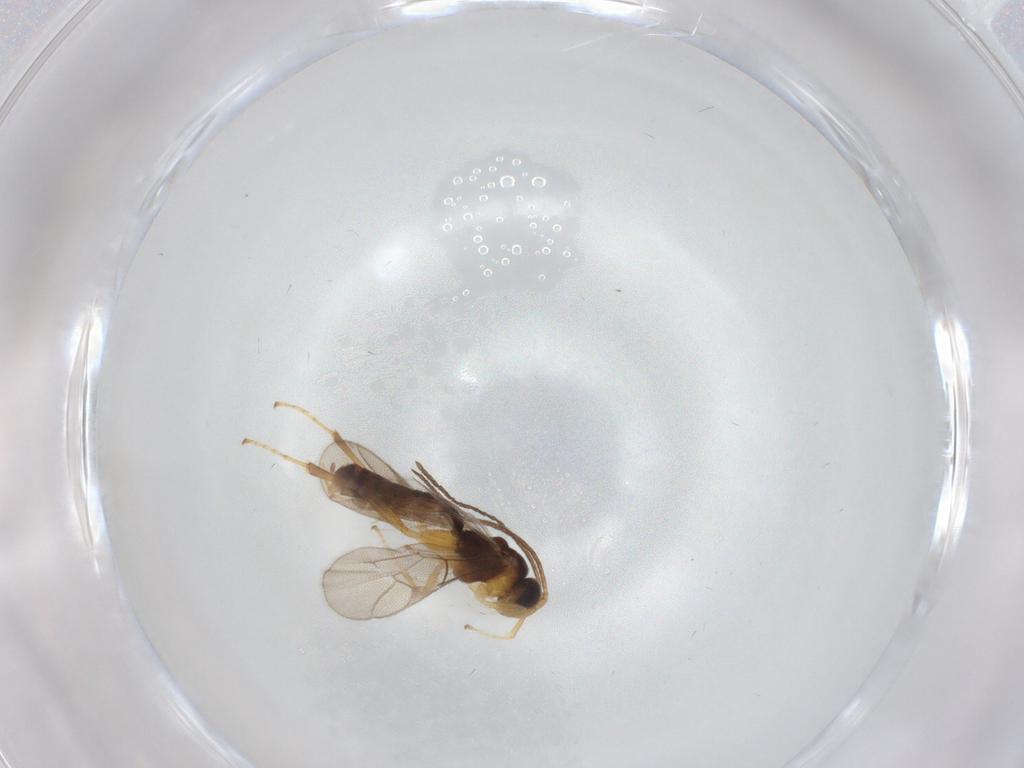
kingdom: Animalia
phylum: Arthropoda
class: Insecta
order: Hymenoptera
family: Ichneumonidae
